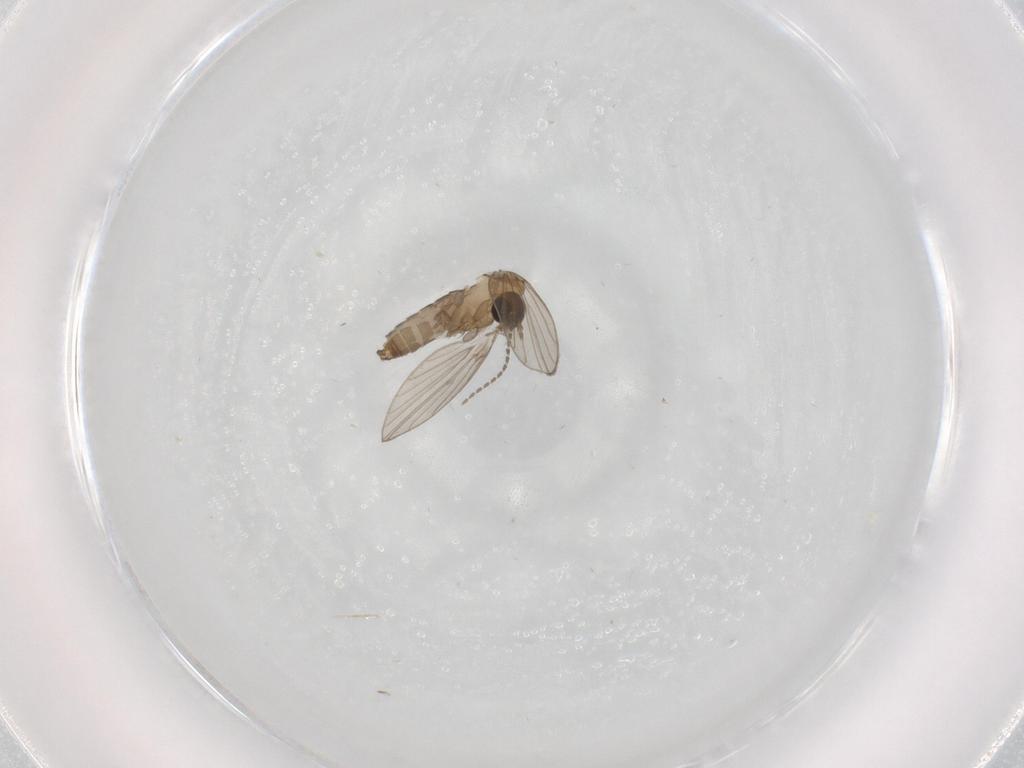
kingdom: Animalia
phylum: Arthropoda
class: Insecta
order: Diptera
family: Psychodidae
